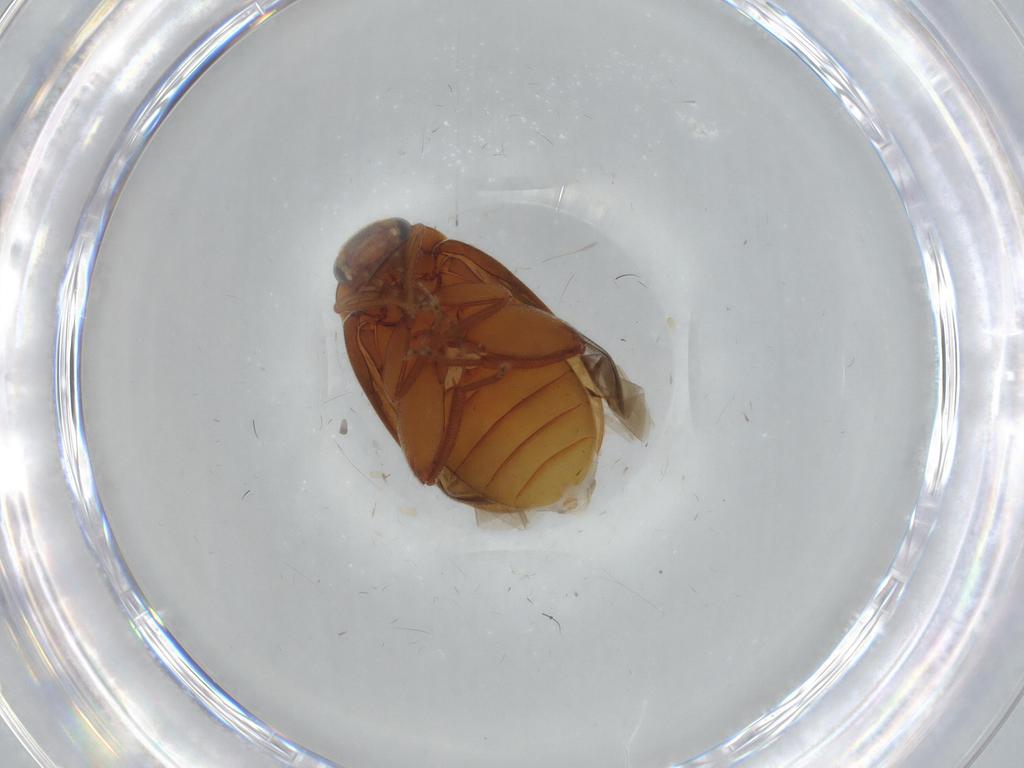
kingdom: Animalia
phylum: Arthropoda
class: Insecta
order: Coleoptera
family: Scirtidae
